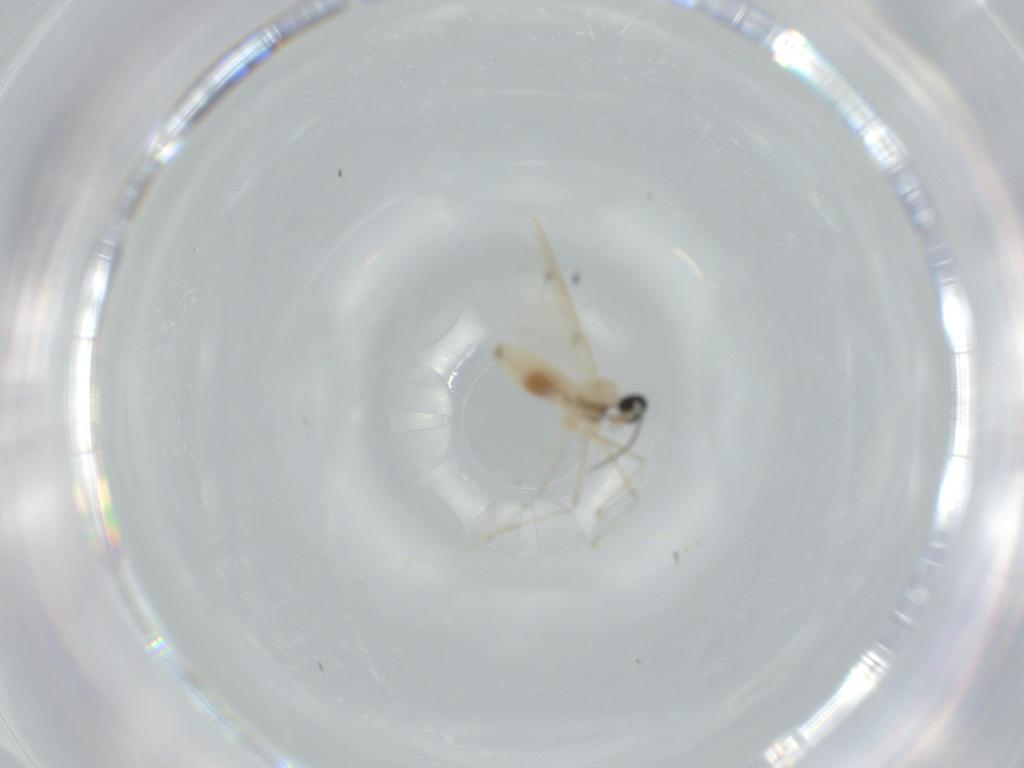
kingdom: Animalia
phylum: Arthropoda
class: Insecta
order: Diptera
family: Cecidomyiidae
